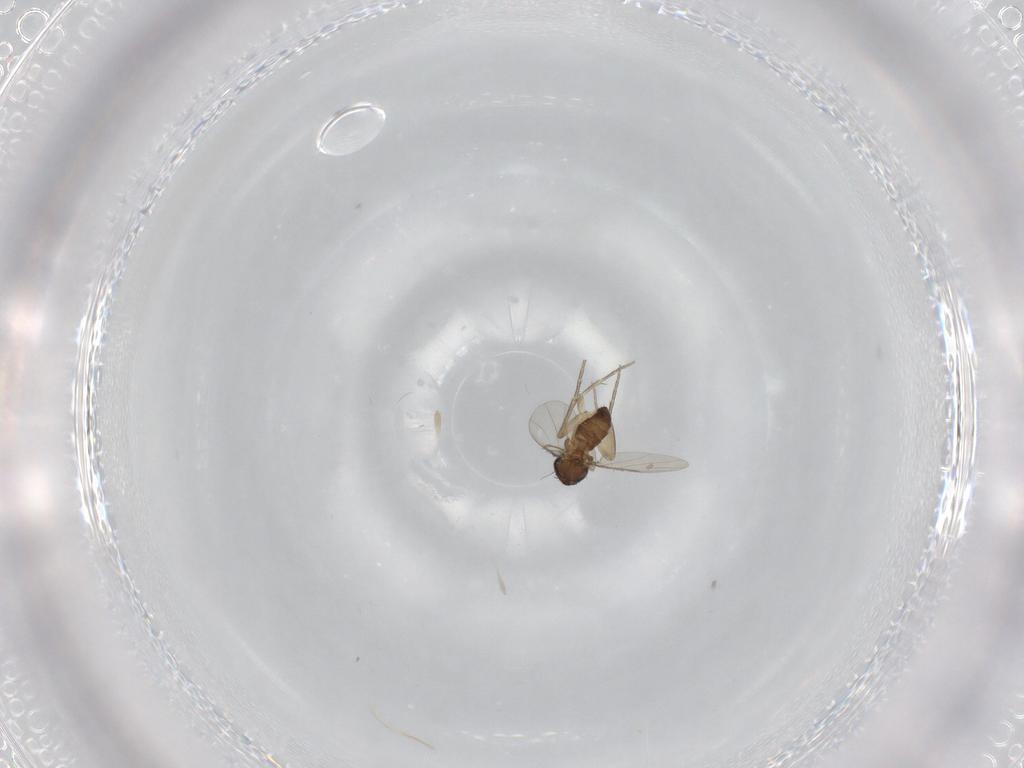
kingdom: Animalia
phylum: Arthropoda
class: Insecta
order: Diptera
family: Phoridae
